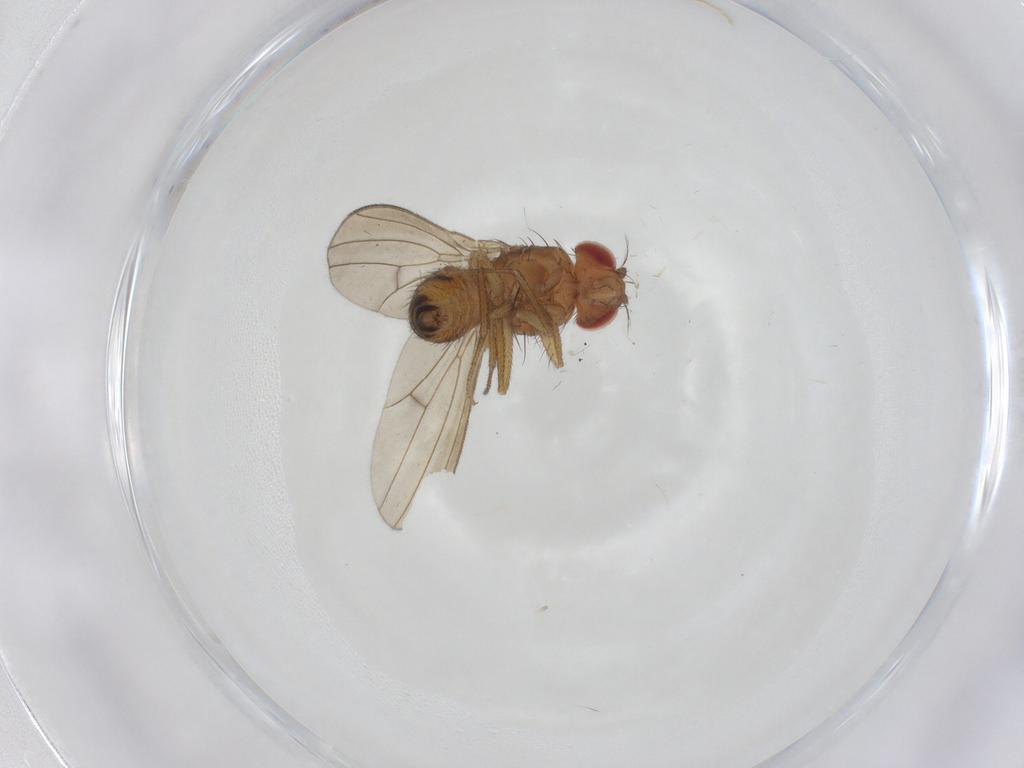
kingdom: Animalia
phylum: Arthropoda
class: Insecta
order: Diptera
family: Drosophilidae
